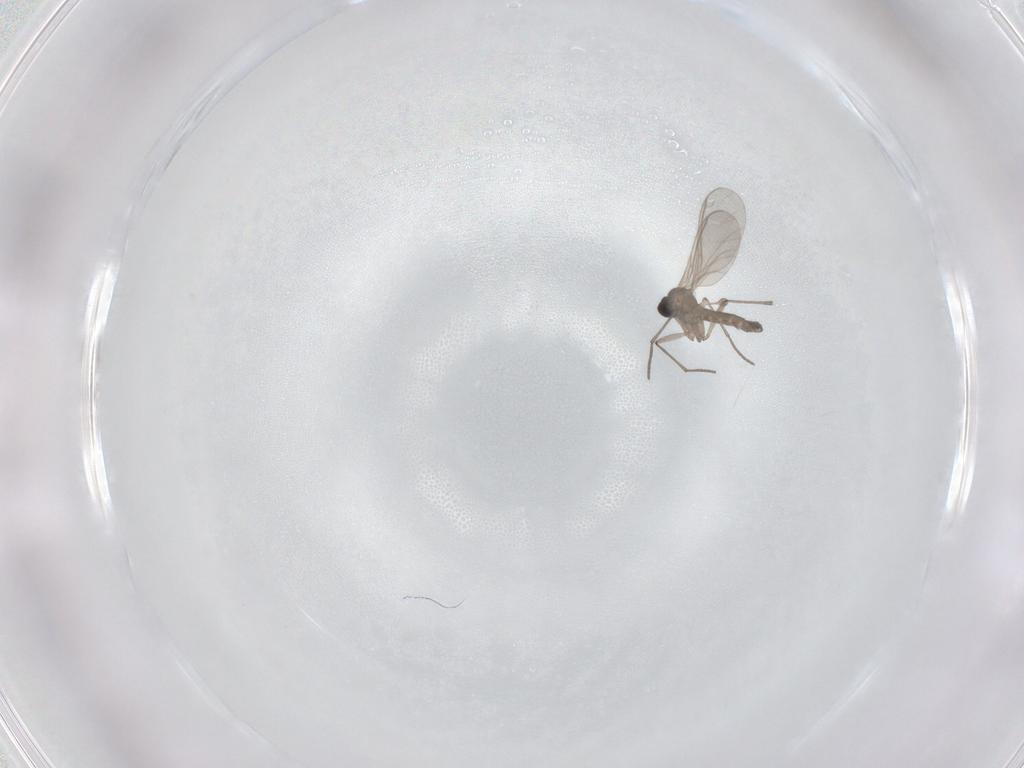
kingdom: Animalia
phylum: Arthropoda
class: Insecta
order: Diptera
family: Sciaridae
